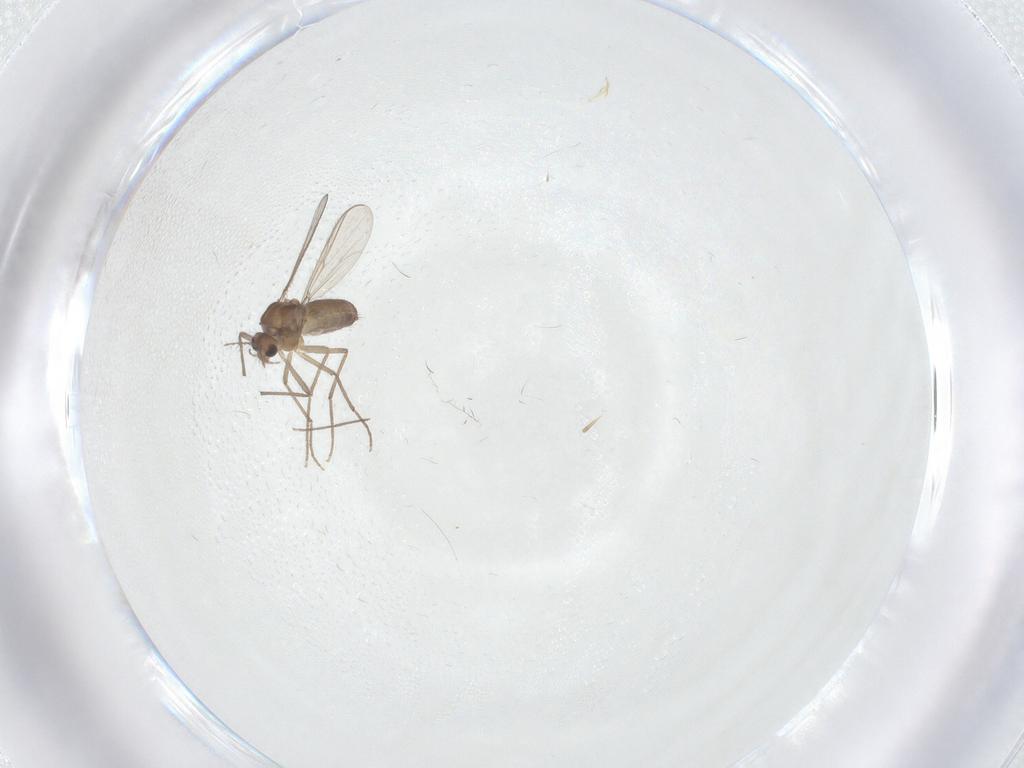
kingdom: Animalia
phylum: Arthropoda
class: Insecta
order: Diptera
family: Chironomidae
